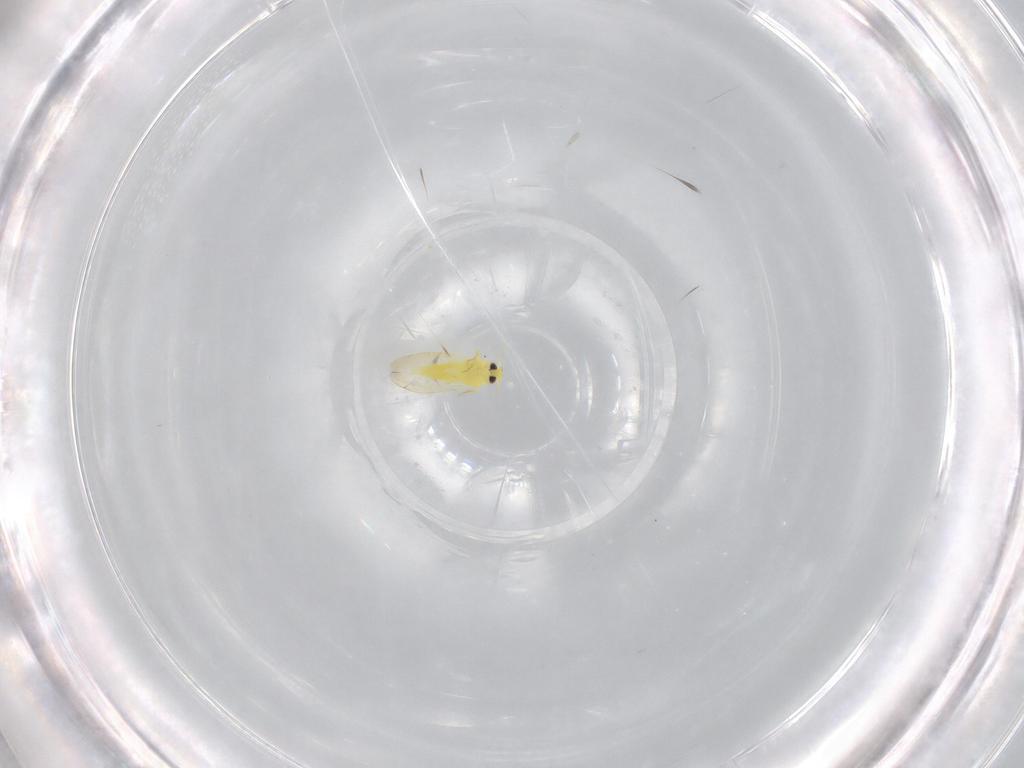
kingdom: Animalia
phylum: Arthropoda
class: Insecta
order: Hemiptera
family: Aleyrodidae
